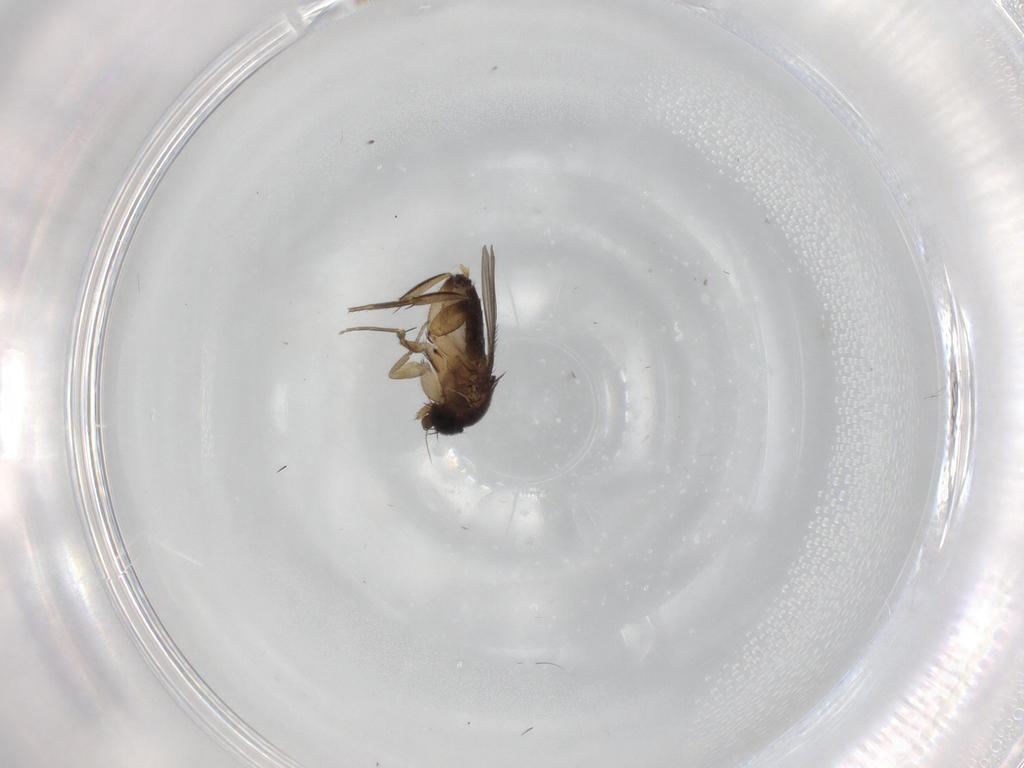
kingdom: Animalia
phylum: Arthropoda
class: Insecta
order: Diptera
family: Phoridae
